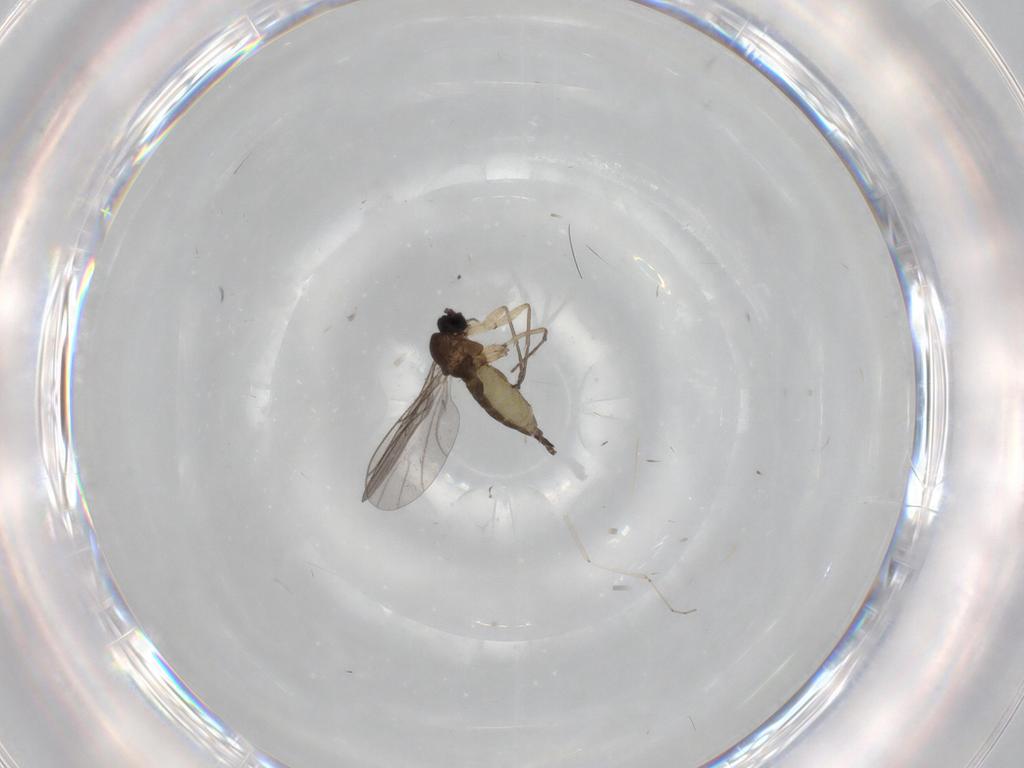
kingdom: Animalia
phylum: Arthropoda
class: Insecta
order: Diptera
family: Sciaridae
